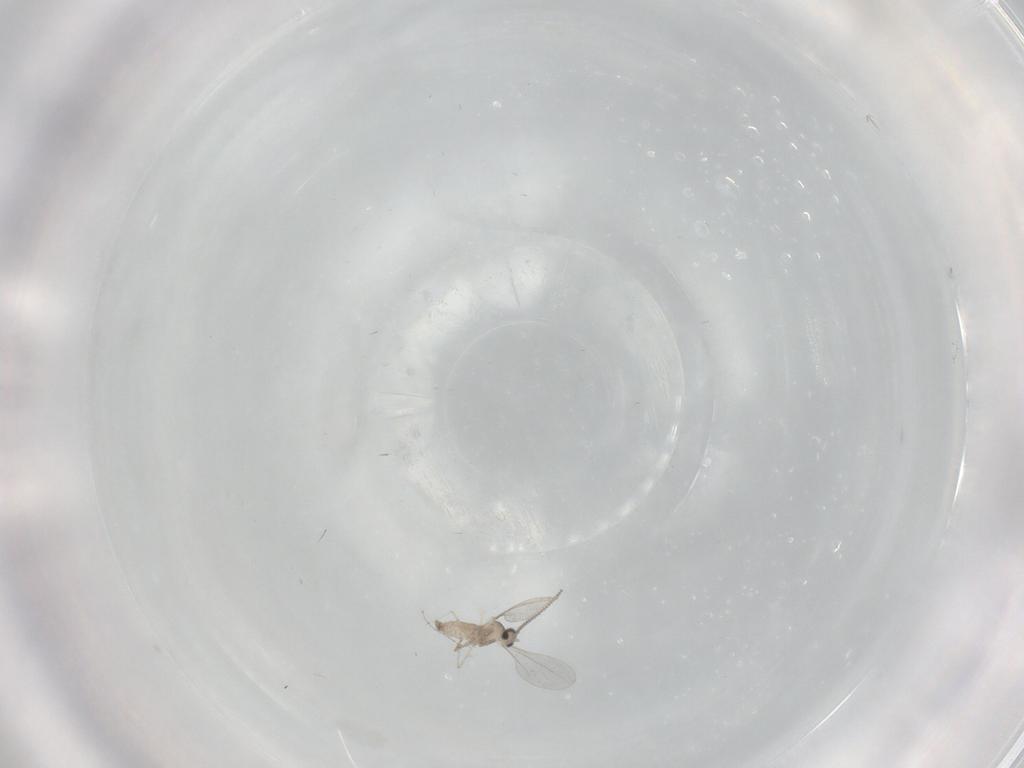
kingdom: Animalia
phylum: Arthropoda
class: Insecta
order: Diptera
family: Cecidomyiidae
